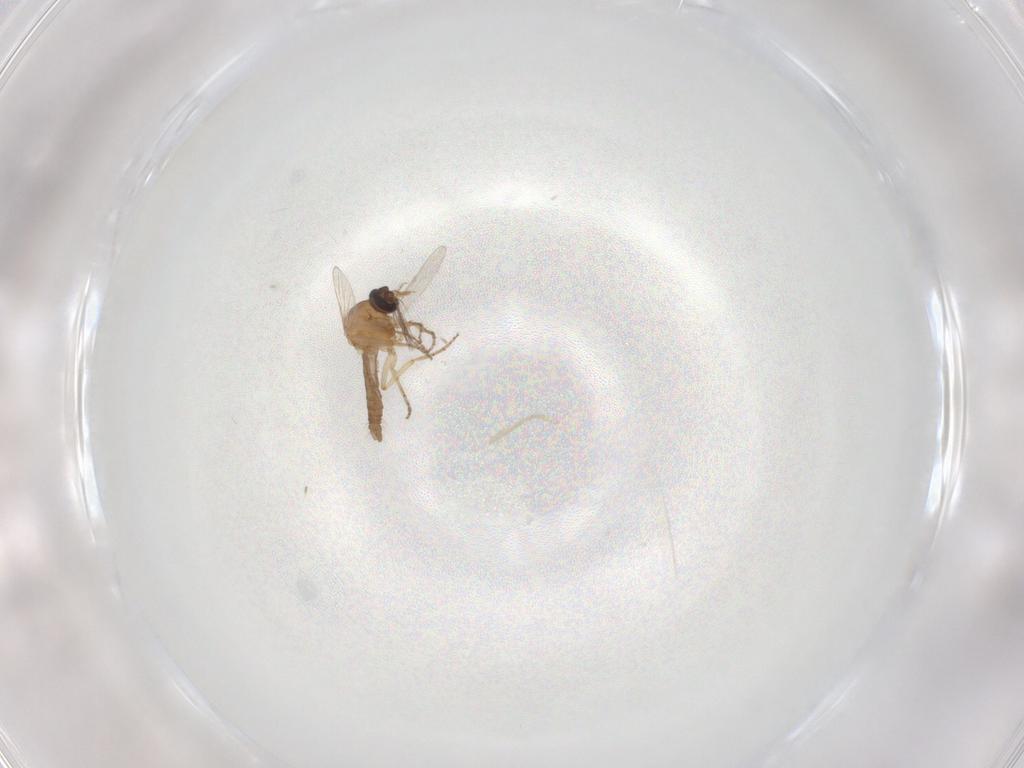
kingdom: Animalia
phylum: Arthropoda
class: Insecta
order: Diptera
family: Ceratopogonidae
